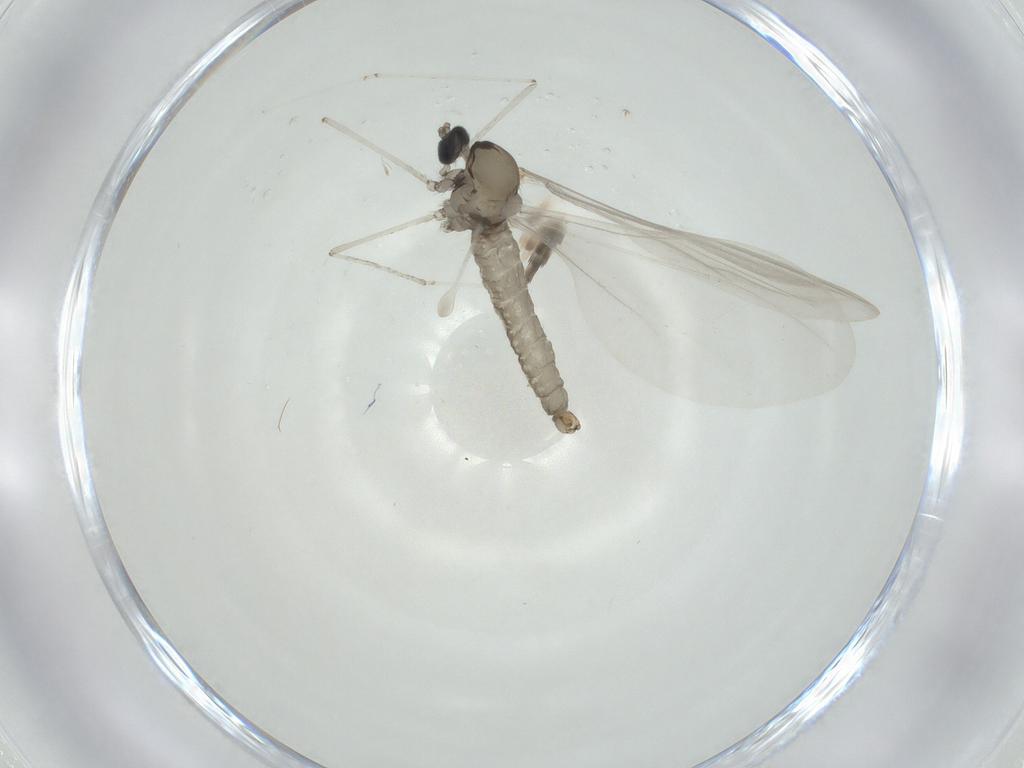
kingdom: Animalia
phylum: Arthropoda
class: Insecta
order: Diptera
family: Cecidomyiidae
